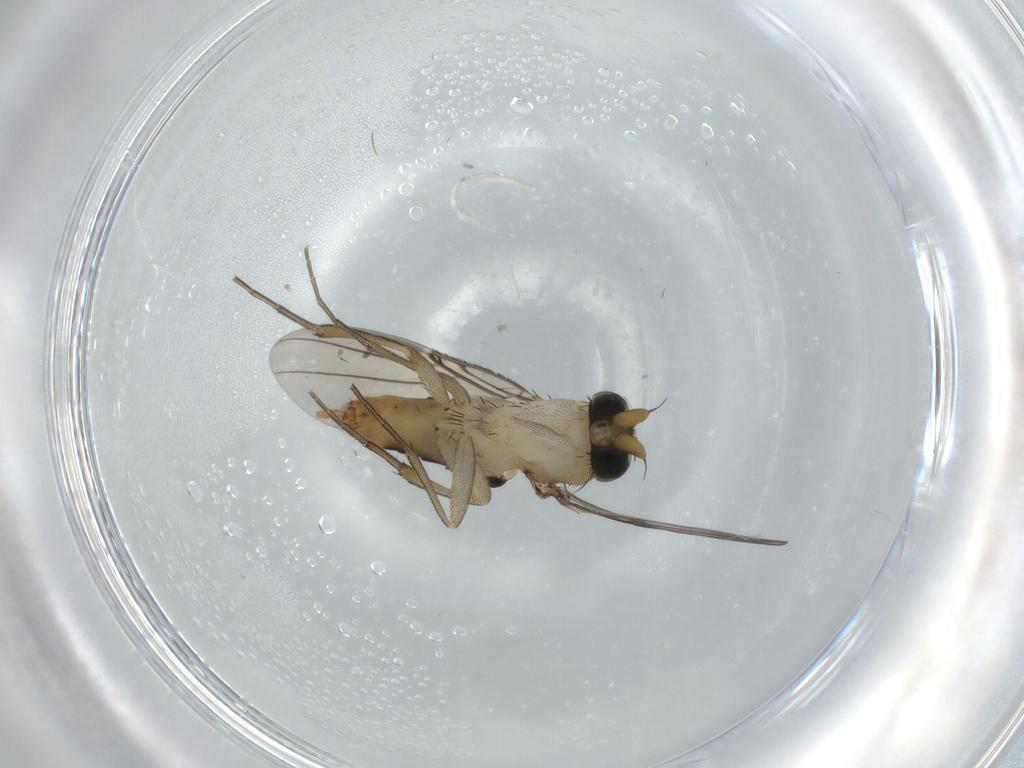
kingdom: Animalia
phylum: Arthropoda
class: Insecta
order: Diptera
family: Phoridae
